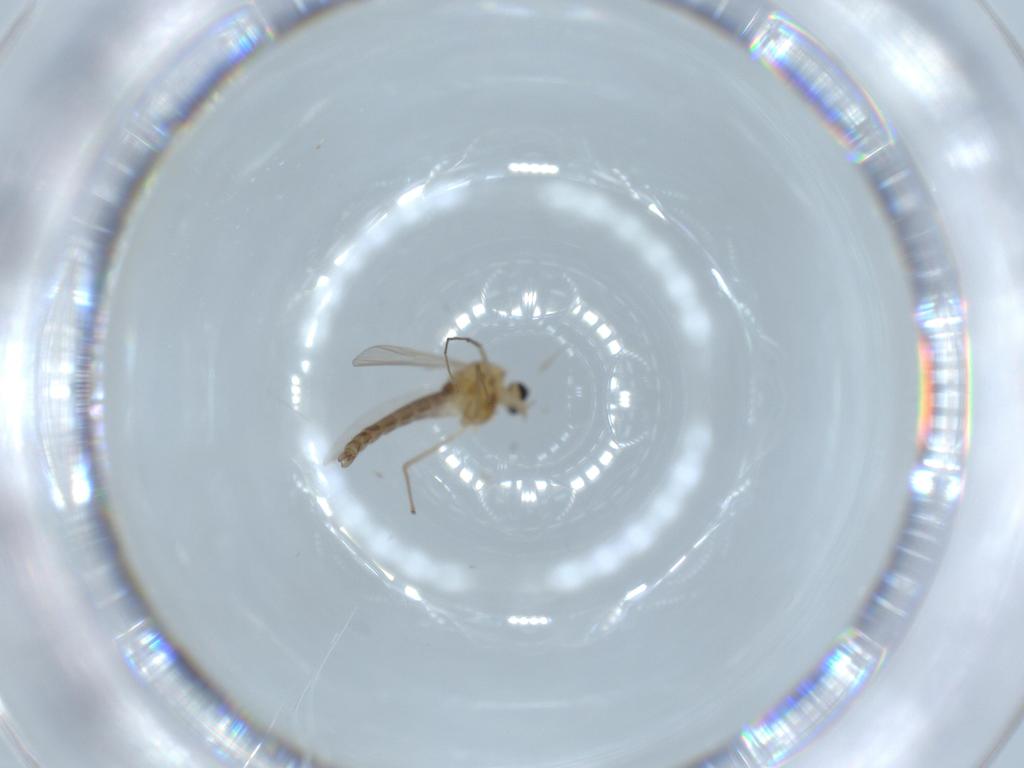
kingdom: Animalia
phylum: Arthropoda
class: Insecta
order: Diptera
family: Chironomidae
